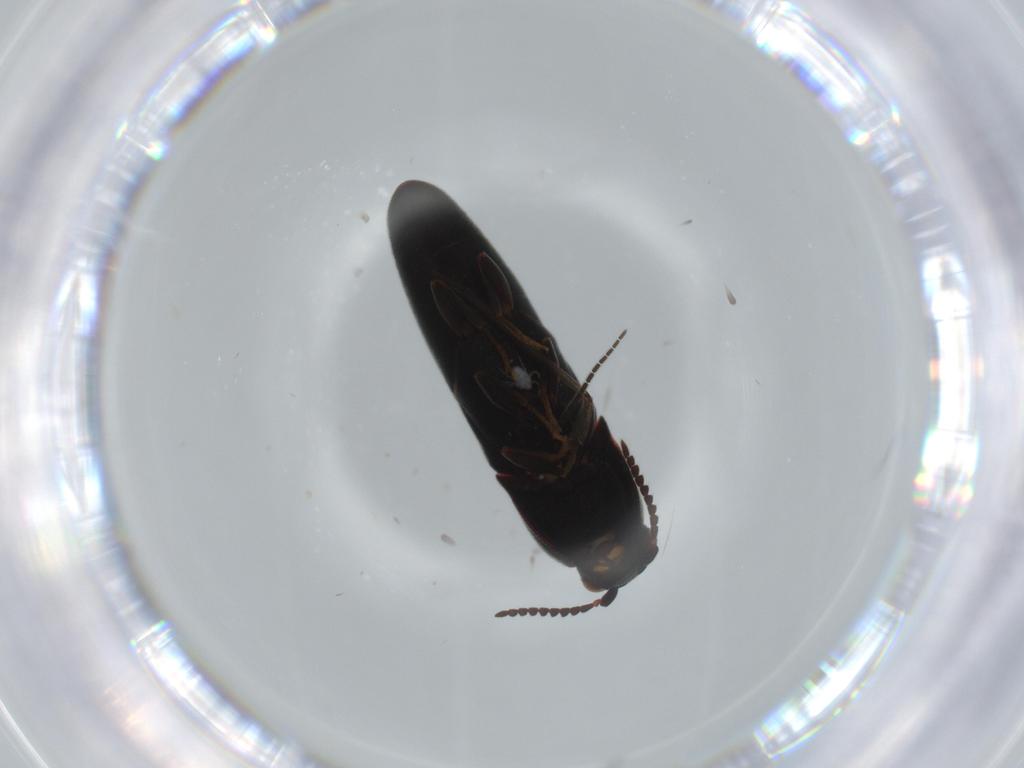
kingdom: Animalia
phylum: Arthropoda
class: Insecta
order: Coleoptera
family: Eucnemidae
